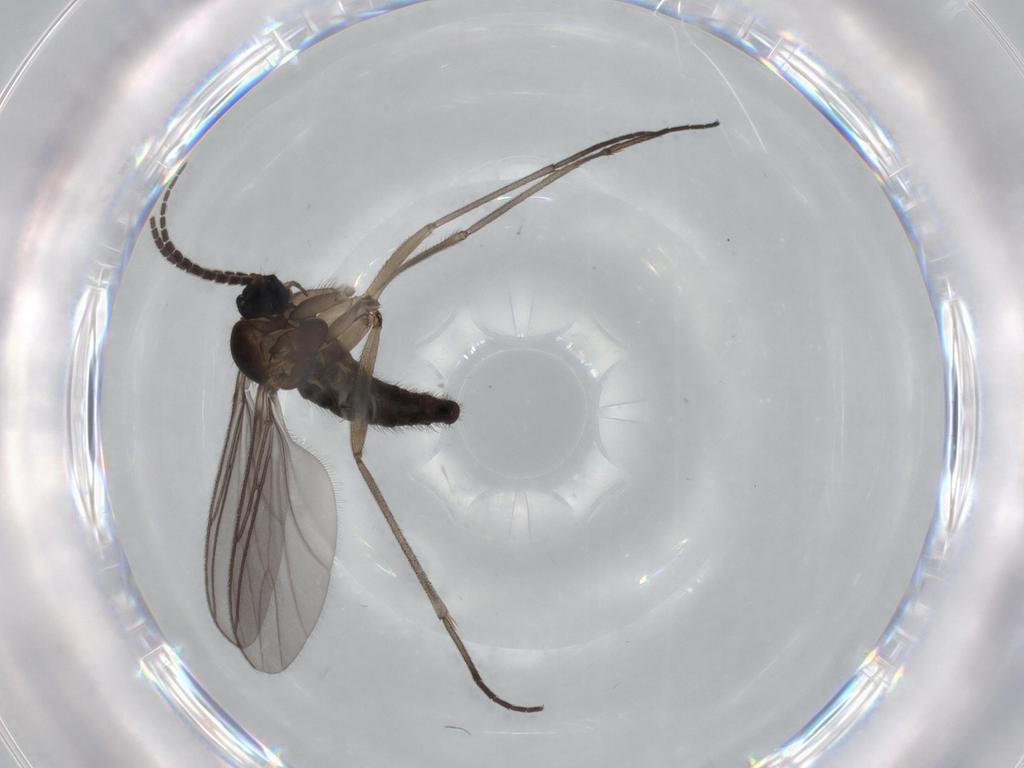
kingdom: Animalia
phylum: Arthropoda
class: Insecta
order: Diptera
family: Sciaridae
